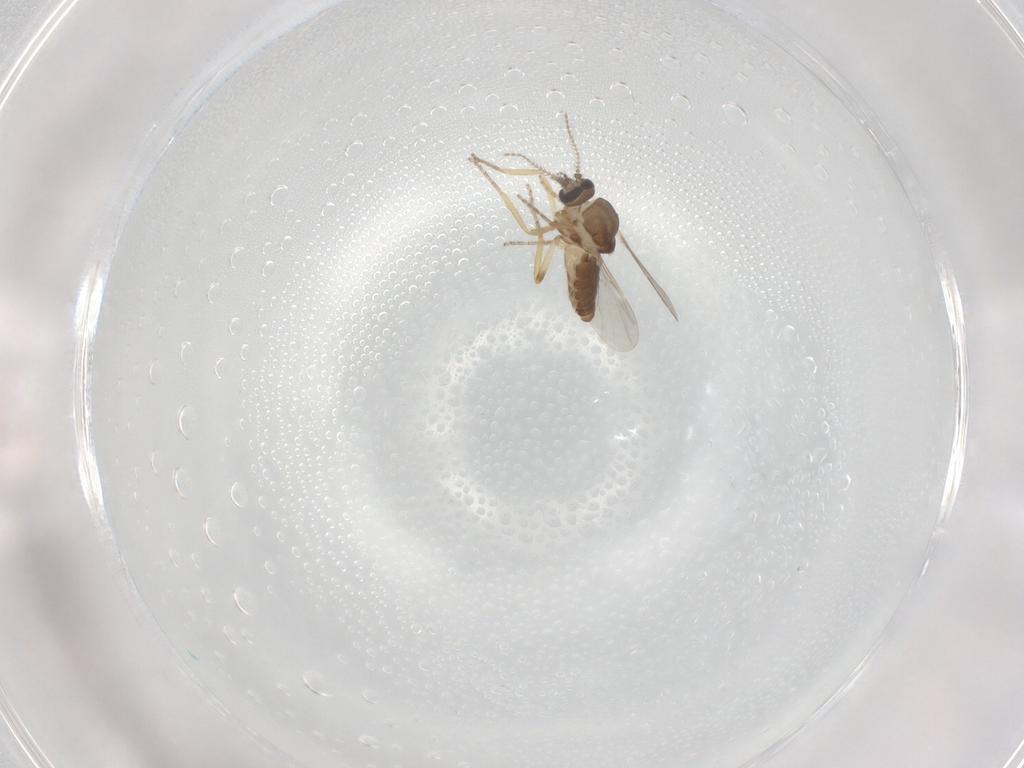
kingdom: Animalia
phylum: Arthropoda
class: Insecta
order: Diptera
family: Ceratopogonidae
